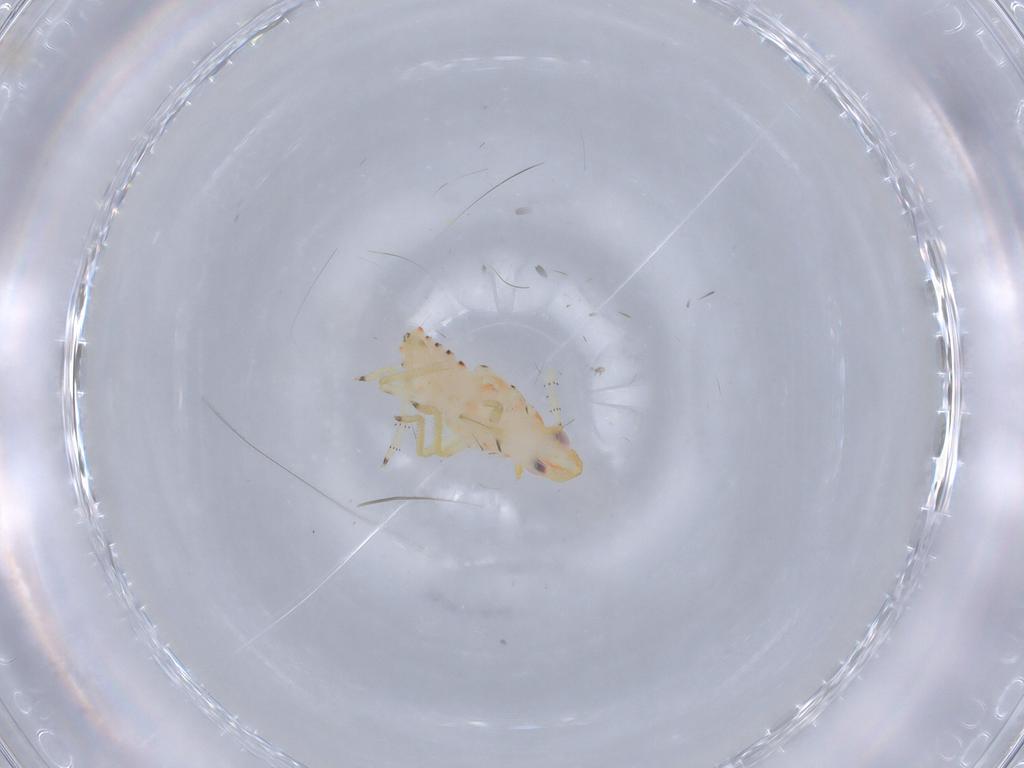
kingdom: Animalia
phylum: Arthropoda
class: Insecta
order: Hemiptera
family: Tropiduchidae
